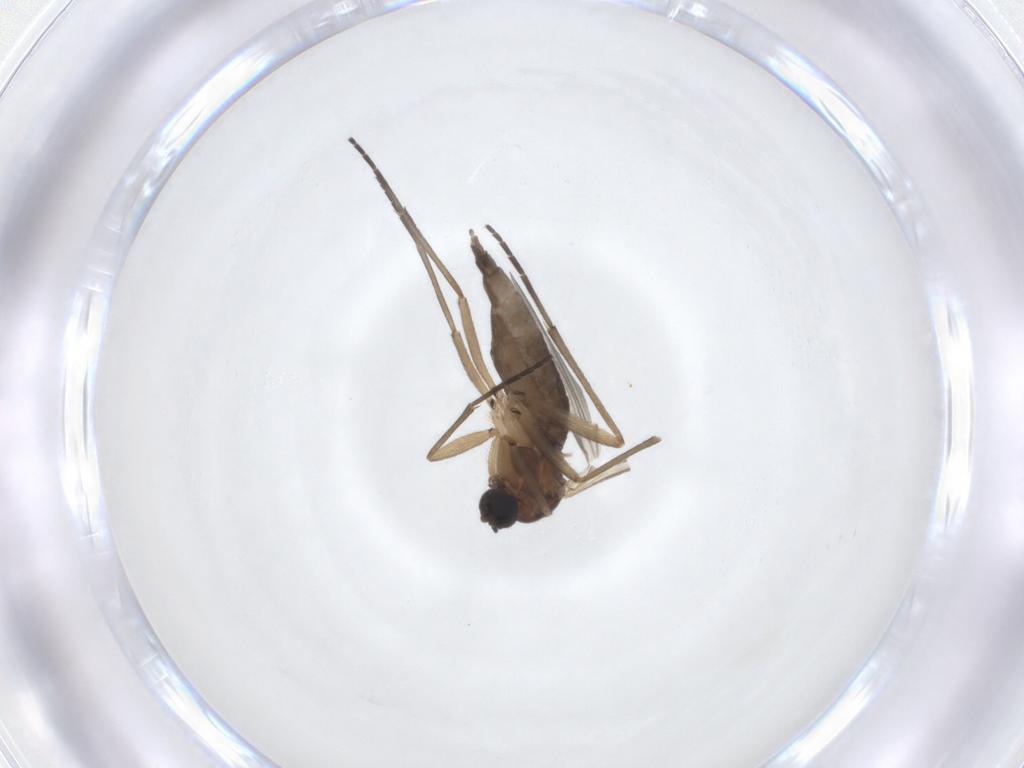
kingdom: Animalia
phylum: Arthropoda
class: Insecta
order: Diptera
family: Sciaridae
